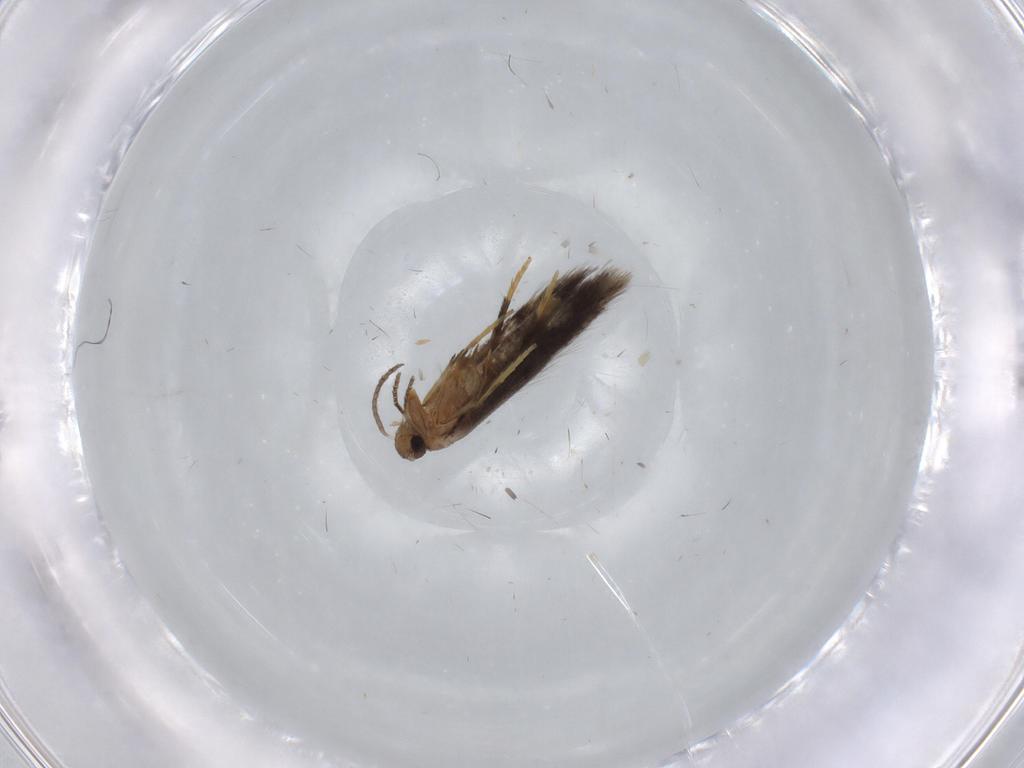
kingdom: Animalia
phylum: Arthropoda
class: Insecta
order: Lepidoptera
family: Heliozelidae
